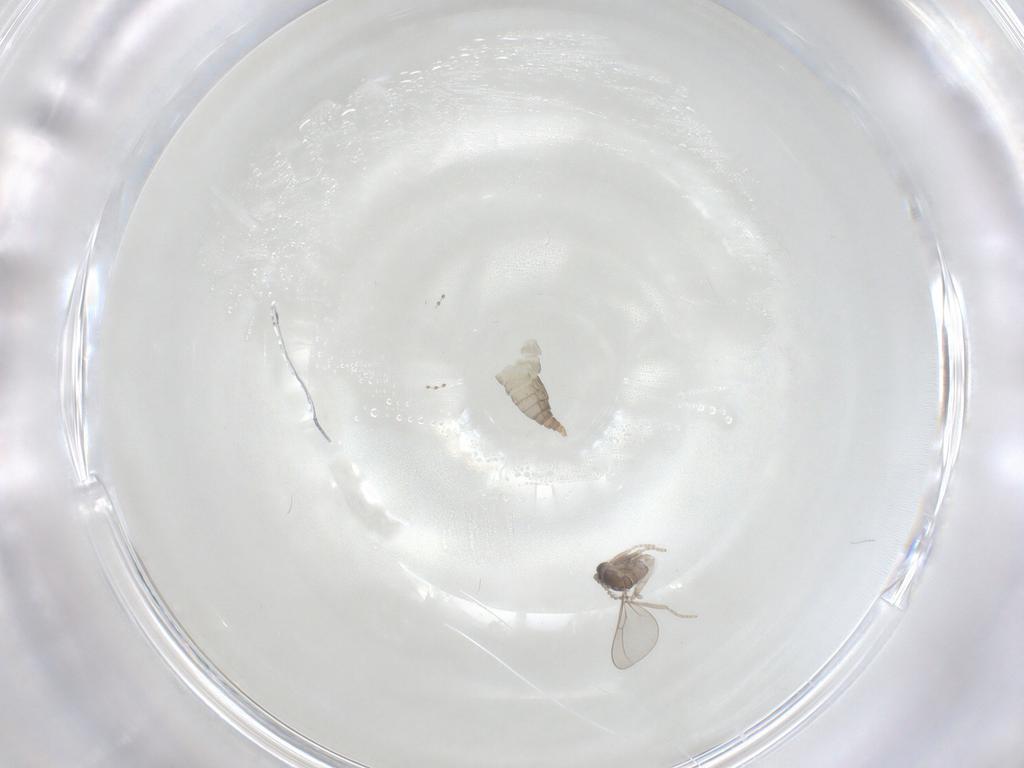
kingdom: Animalia
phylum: Arthropoda
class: Insecta
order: Diptera
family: Cecidomyiidae
